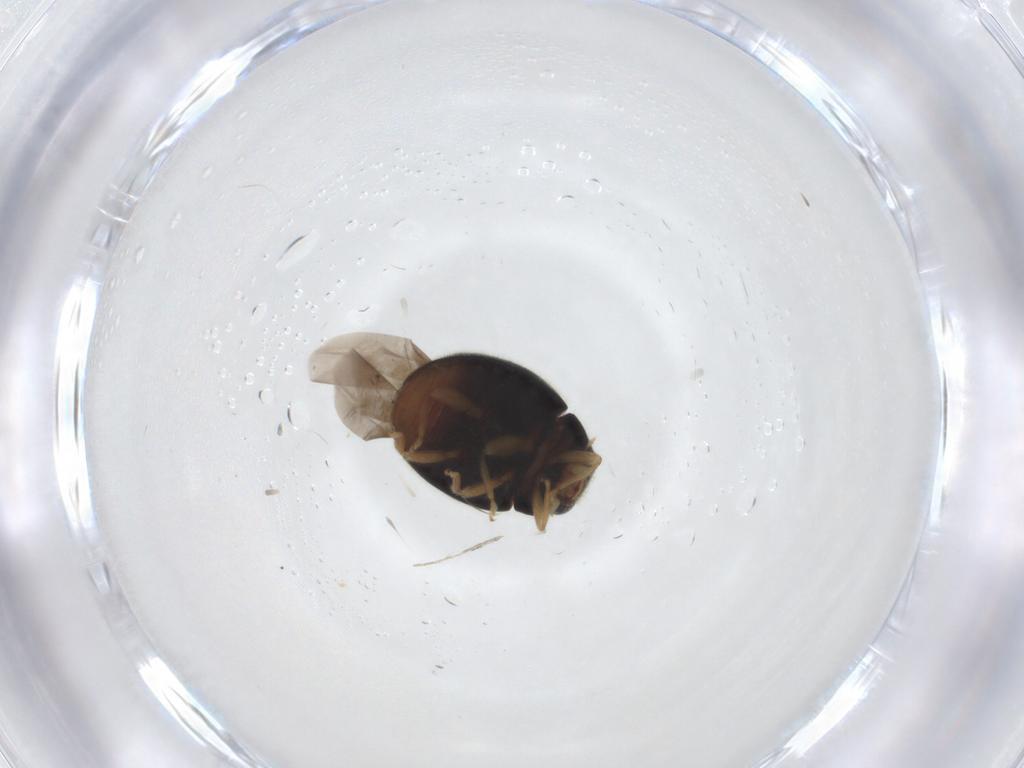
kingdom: Animalia
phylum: Arthropoda
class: Insecta
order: Coleoptera
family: Coccinellidae
